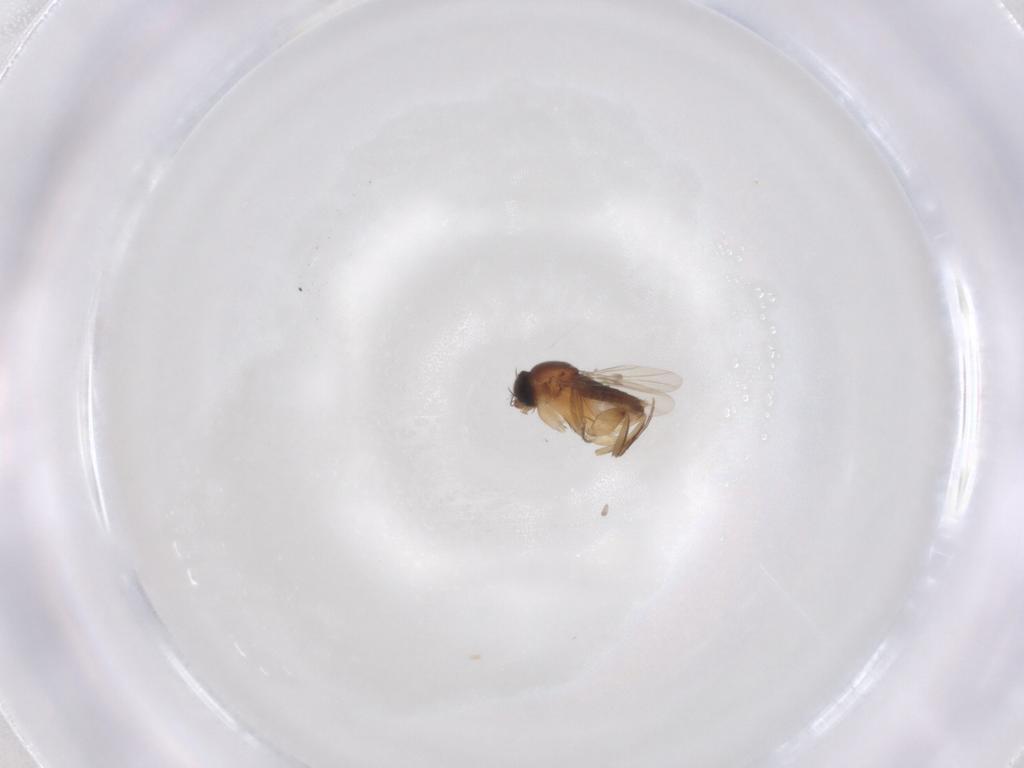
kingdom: Animalia
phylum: Arthropoda
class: Insecta
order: Diptera
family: Phoridae
